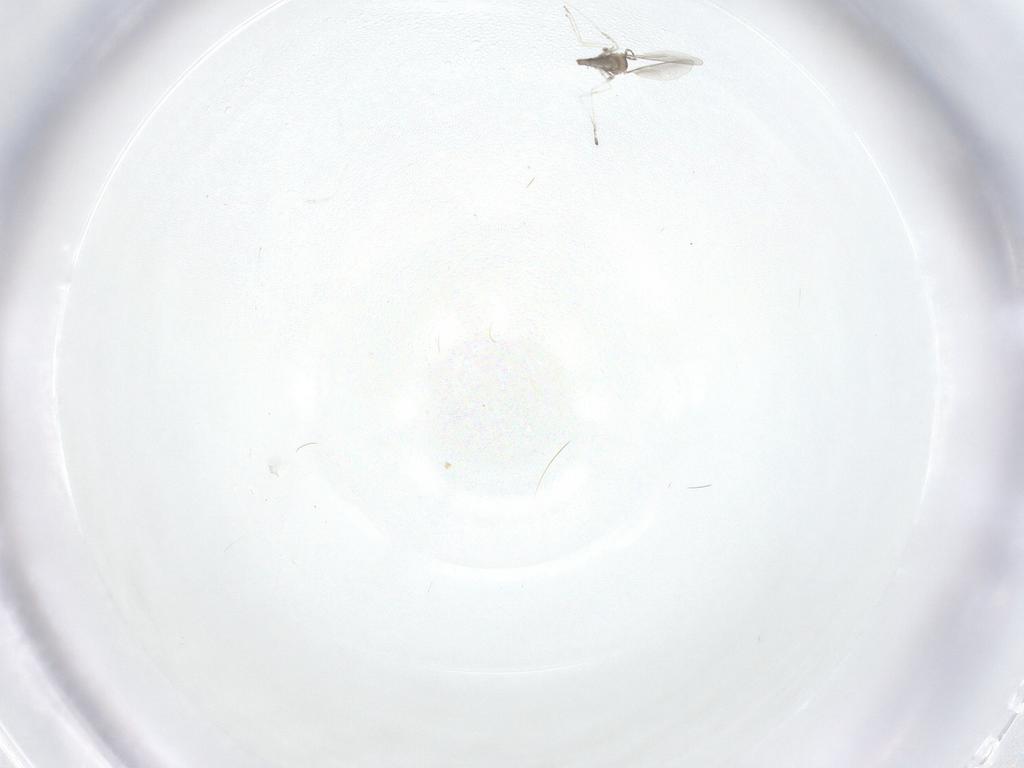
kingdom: Animalia
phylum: Arthropoda
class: Insecta
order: Diptera
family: Cecidomyiidae
